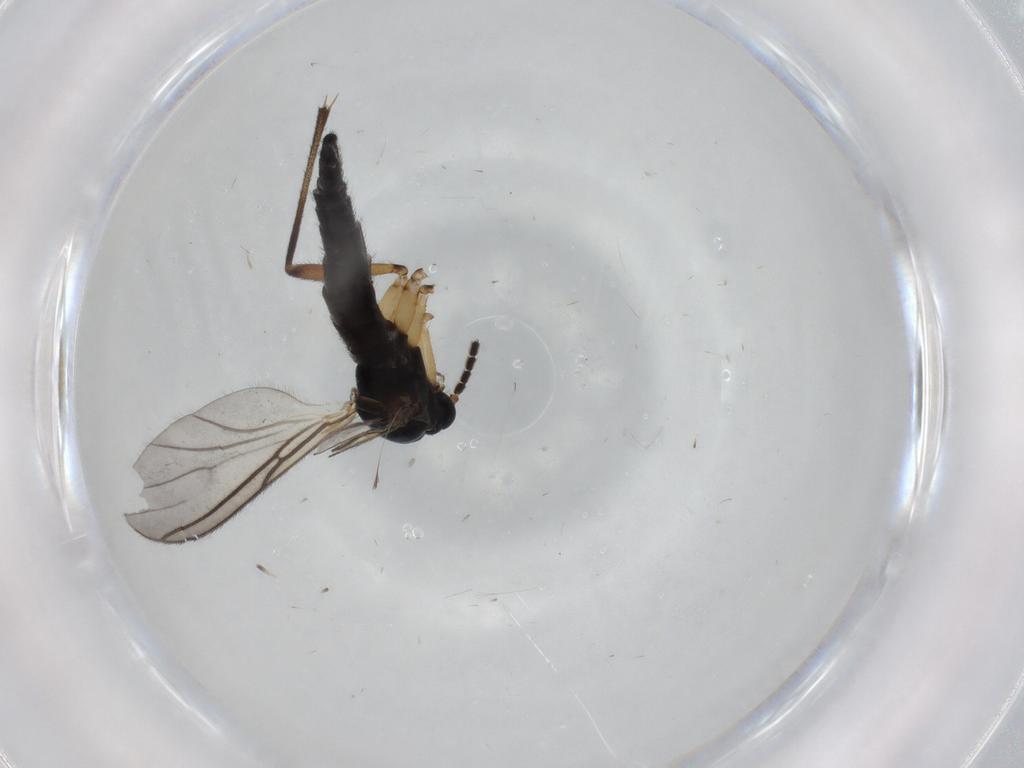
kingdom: Animalia
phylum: Arthropoda
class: Insecta
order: Diptera
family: Sciaridae
